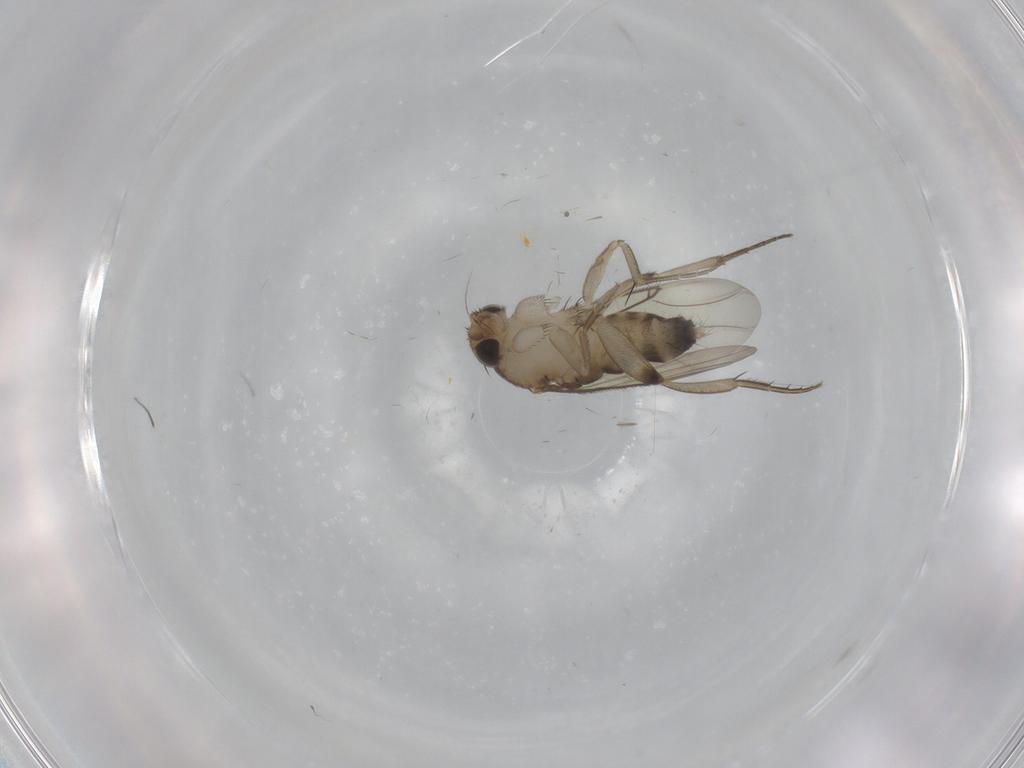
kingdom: Animalia
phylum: Arthropoda
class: Insecta
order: Diptera
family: Phoridae
